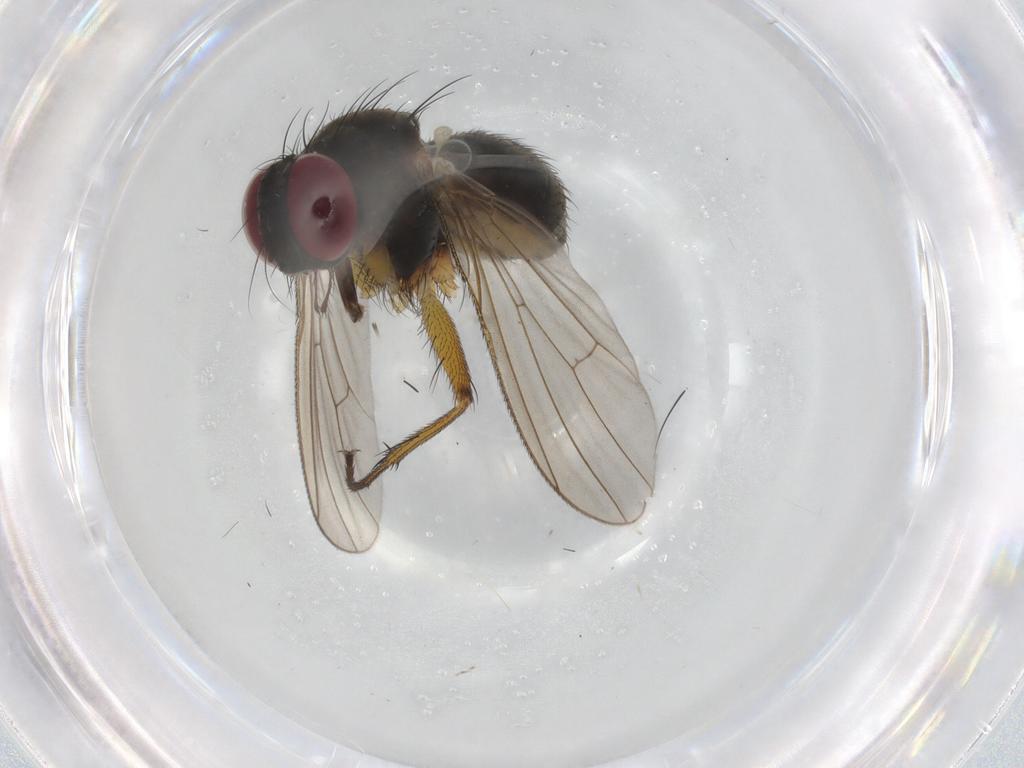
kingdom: Animalia
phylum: Arthropoda
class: Insecta
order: Diptera
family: Muscidae
